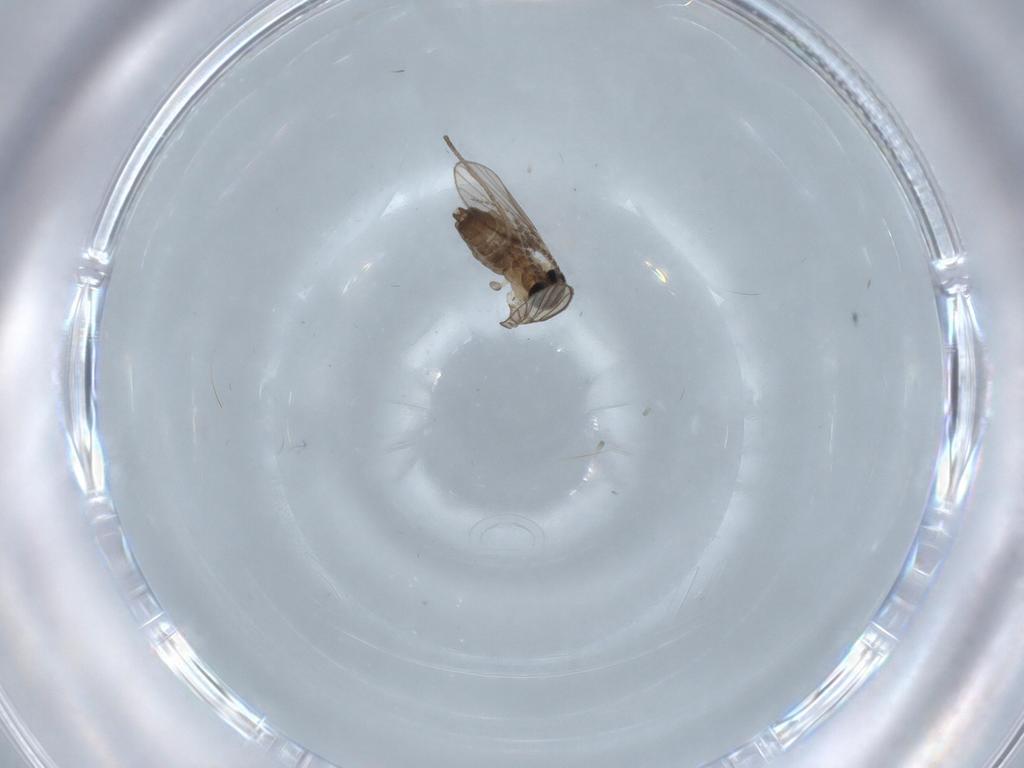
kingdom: Animalia
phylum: Arthropoda
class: Insecta
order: Diptera
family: Psychodidae
